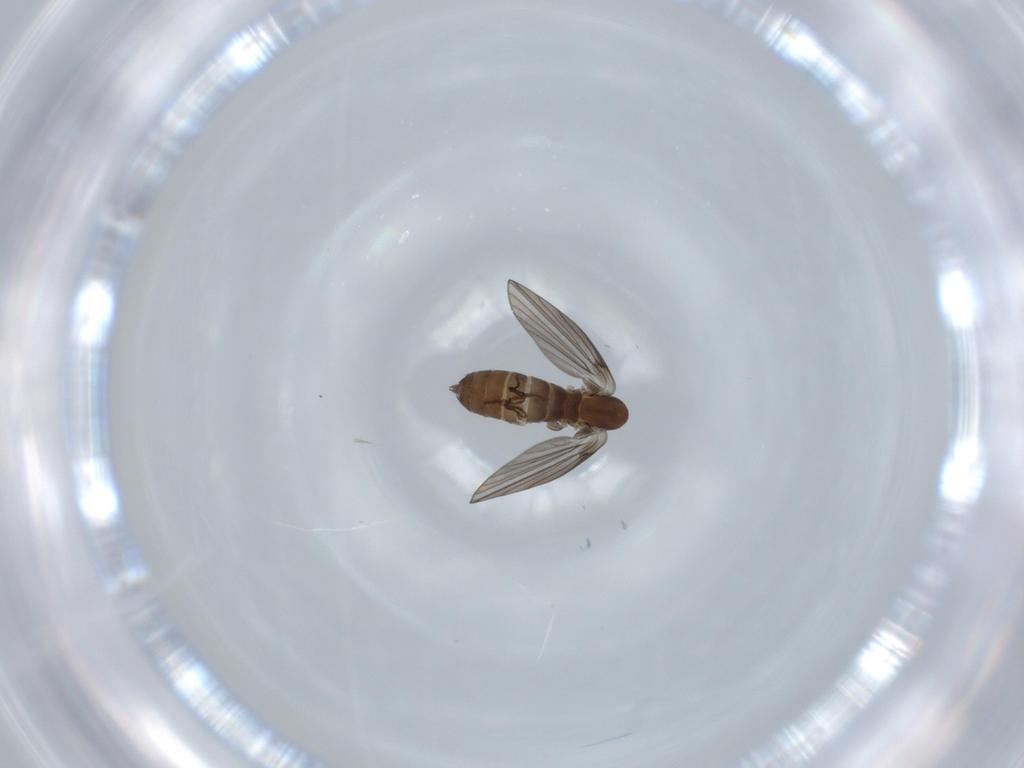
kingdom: Animalia
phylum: Arthropoda
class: Insecta
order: Diptera
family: Psychodidae
